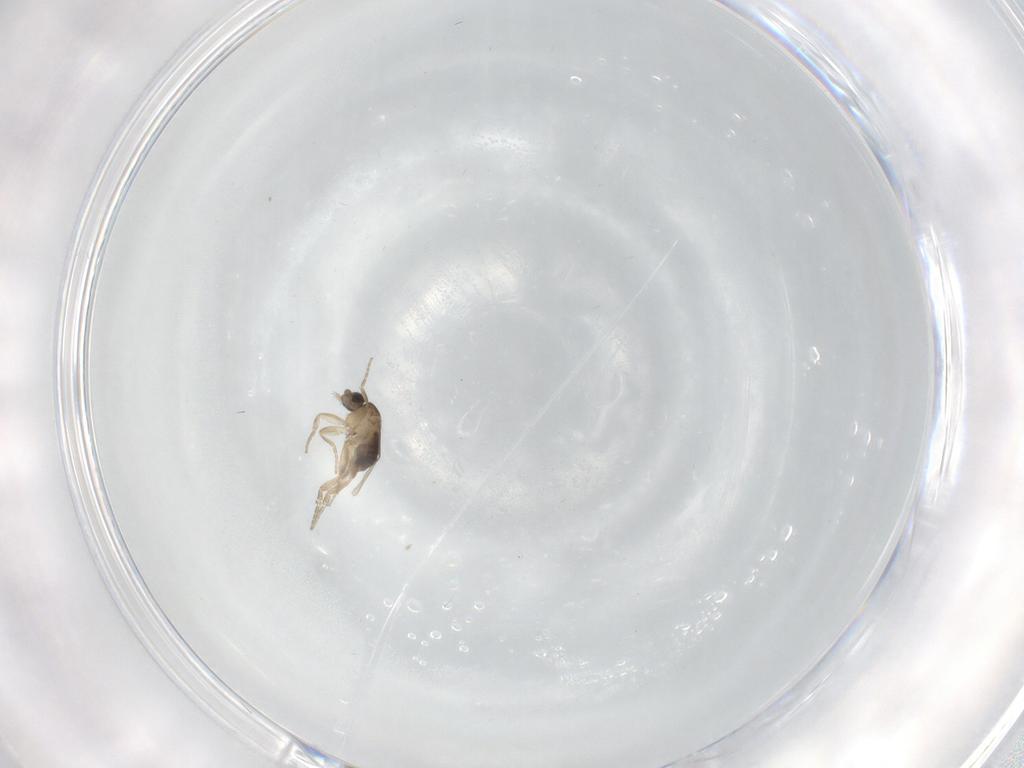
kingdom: Animalia
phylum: Arthropoda
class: Insecta
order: Diptera
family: Phoridae
